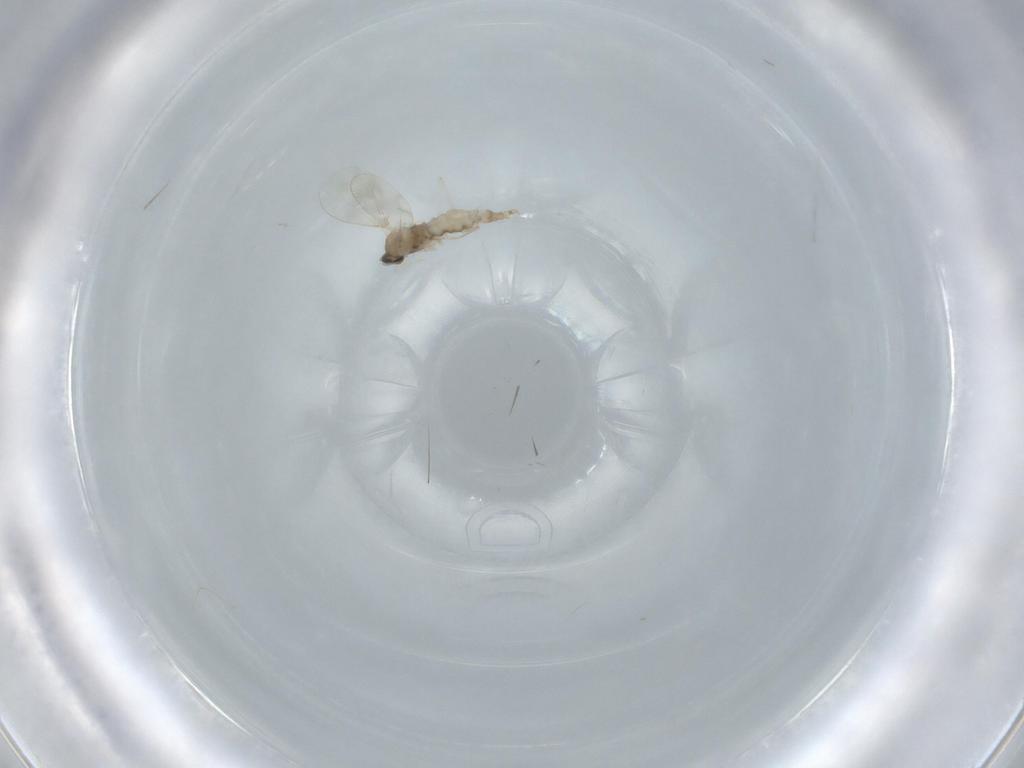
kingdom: Animalia
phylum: Arthropoda
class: Insecta
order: Diptera
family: Cecidomyiidae
